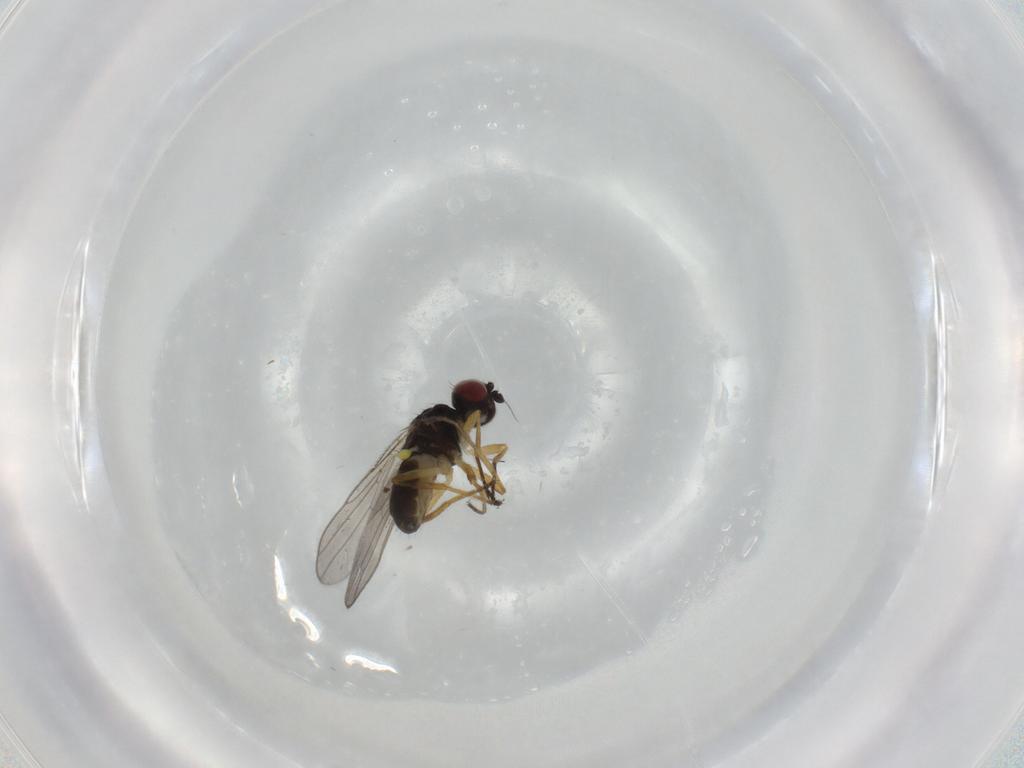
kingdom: Animalia
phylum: Arthropoda
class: Insecta
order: Diptera
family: Chloropidae
